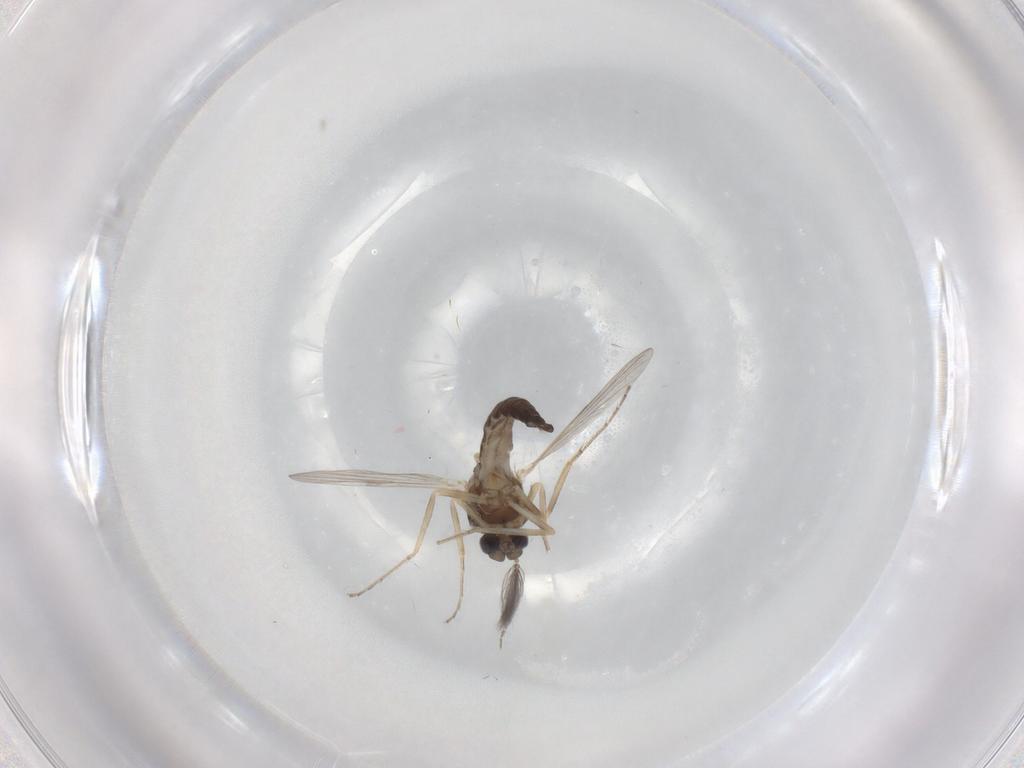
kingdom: Animalia
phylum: Arthropoda
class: Insecta
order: Diptera
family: Ceratopogonidae
